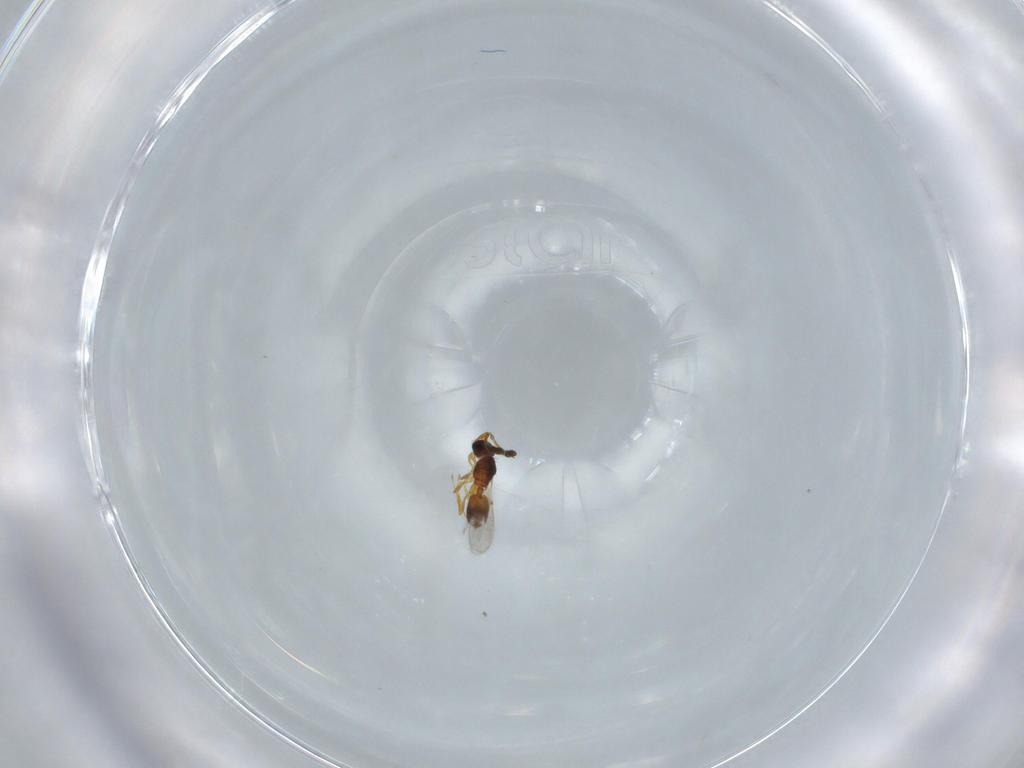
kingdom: Animalia
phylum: Arthropoda
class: Insecta
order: Hymenoptera
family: Diapriidae
